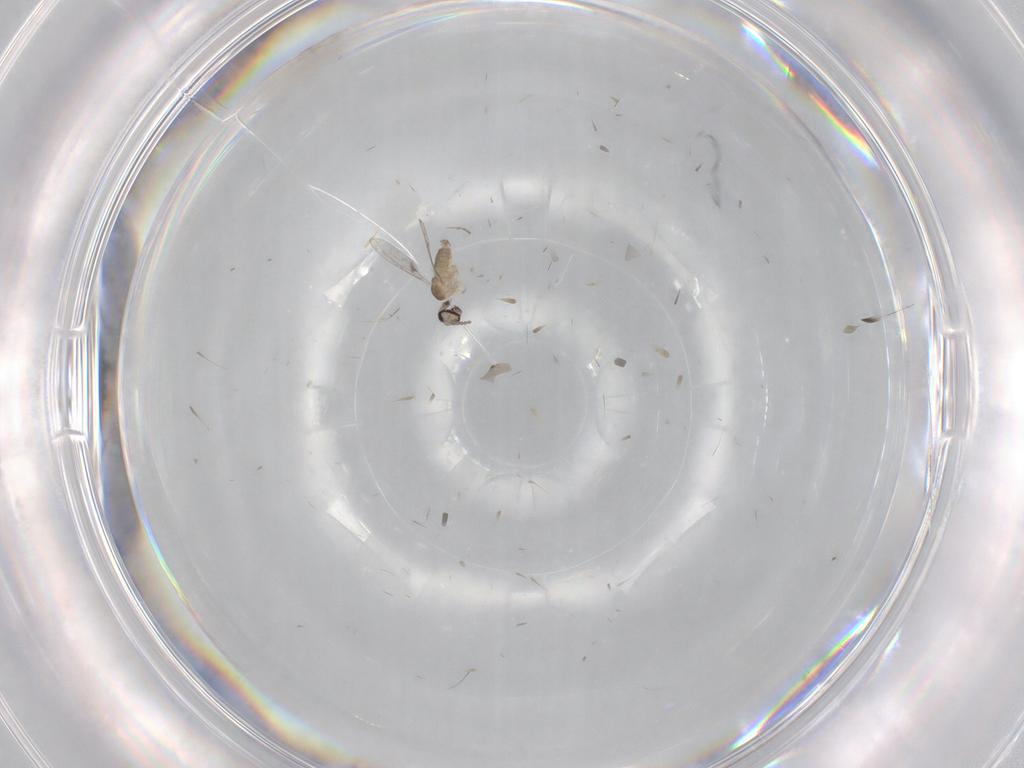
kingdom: Animalia
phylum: Arthropoda
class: Insecta
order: Diptera
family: Cecidomyiidae
